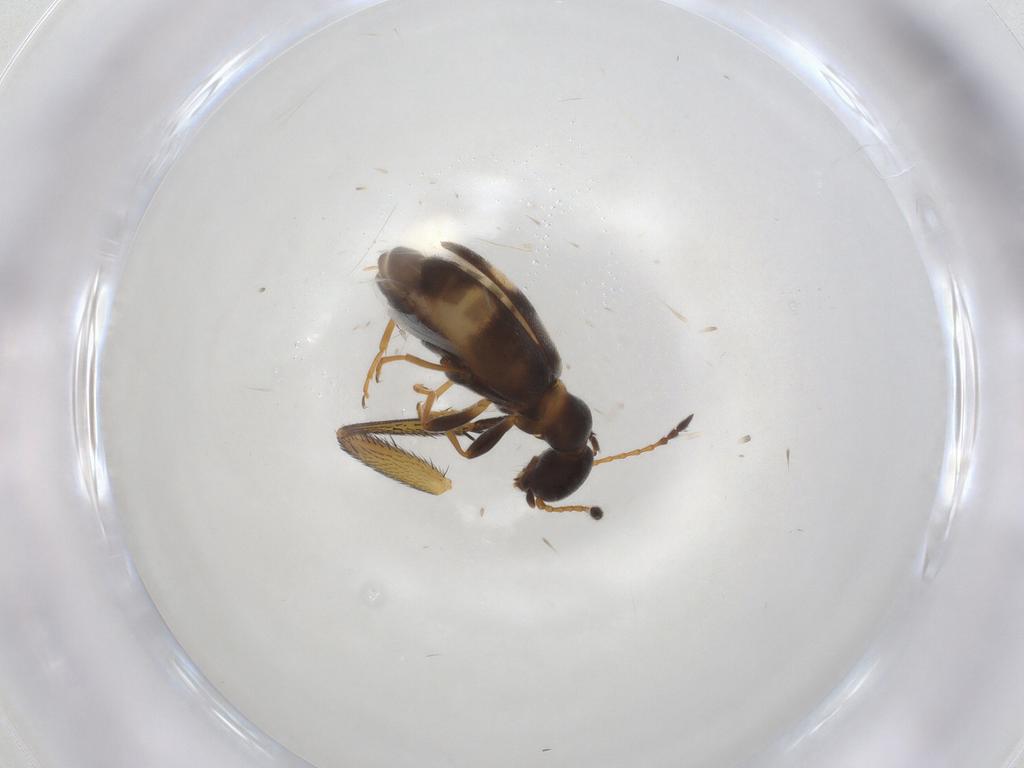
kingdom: Animalia
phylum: Arthropoda
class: Insecta
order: Coleoptera
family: Anthicidae
